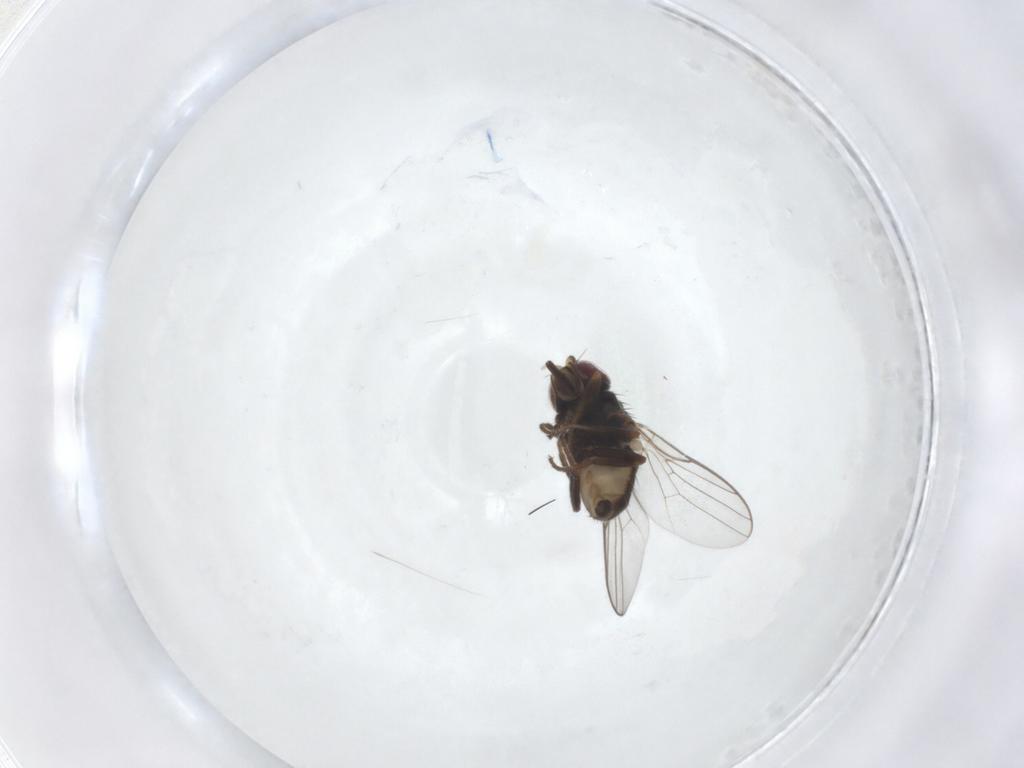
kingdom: Animalia
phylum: Arthropoda
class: Insecta
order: Diptera
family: Chloropidae
